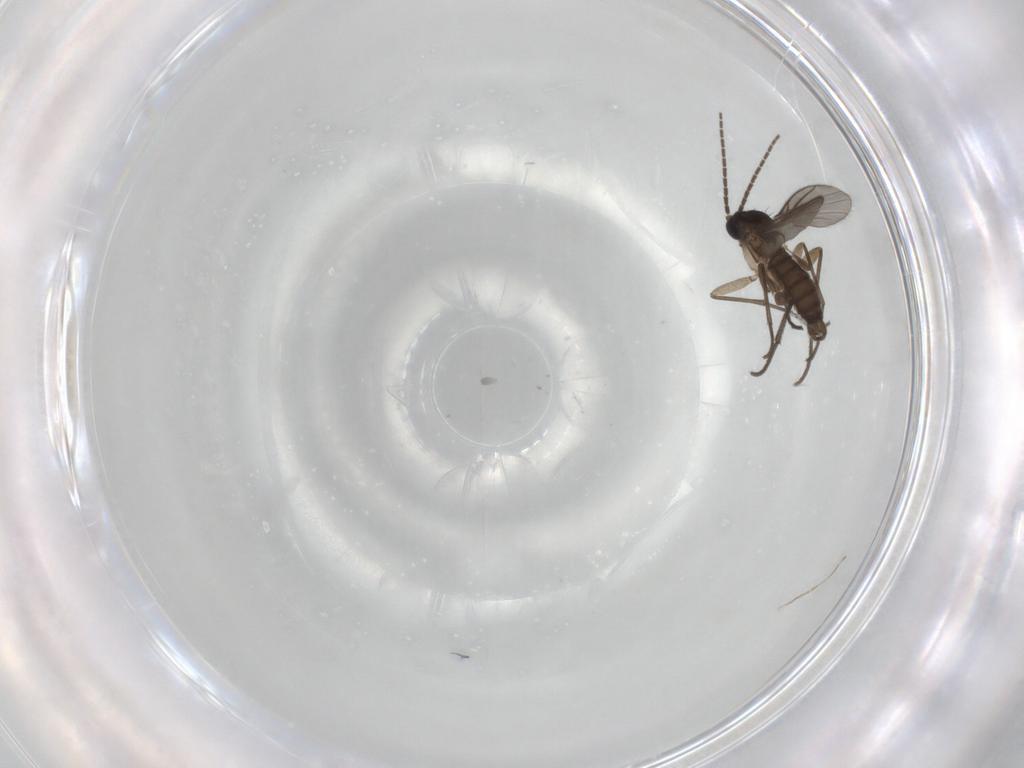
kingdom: Animalia
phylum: Arthropoda
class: Insecta
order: Diptera
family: Sciaridae
